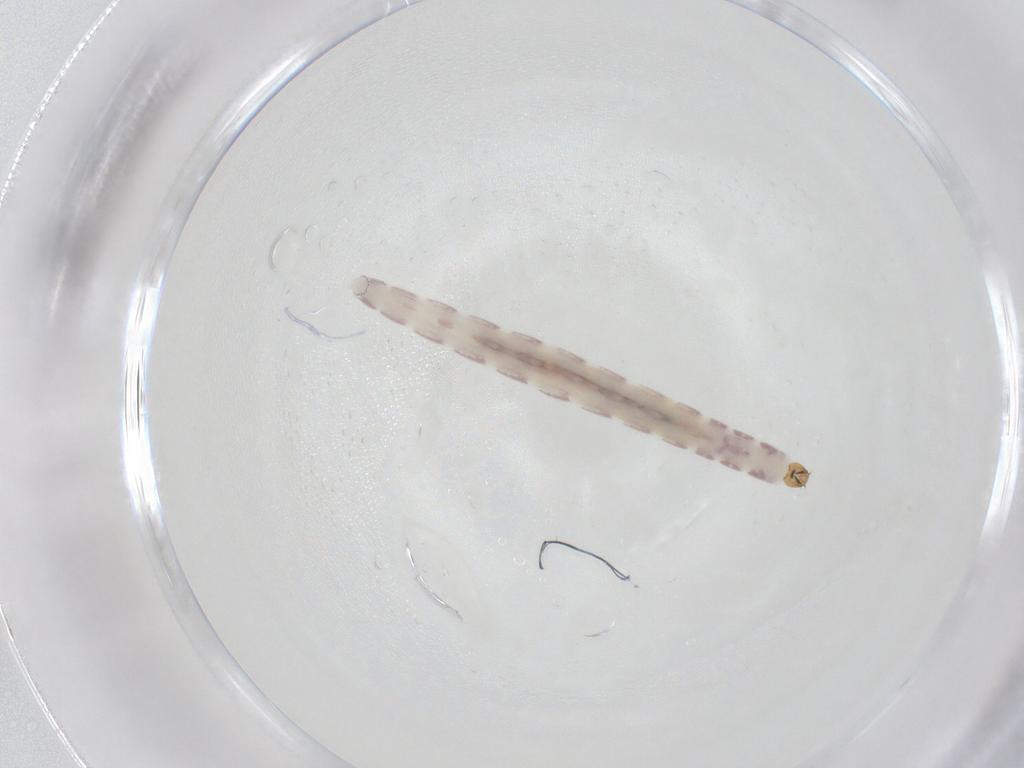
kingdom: Animalia
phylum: Arthropoda
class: Insecta
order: Diptera
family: Chironomidae
